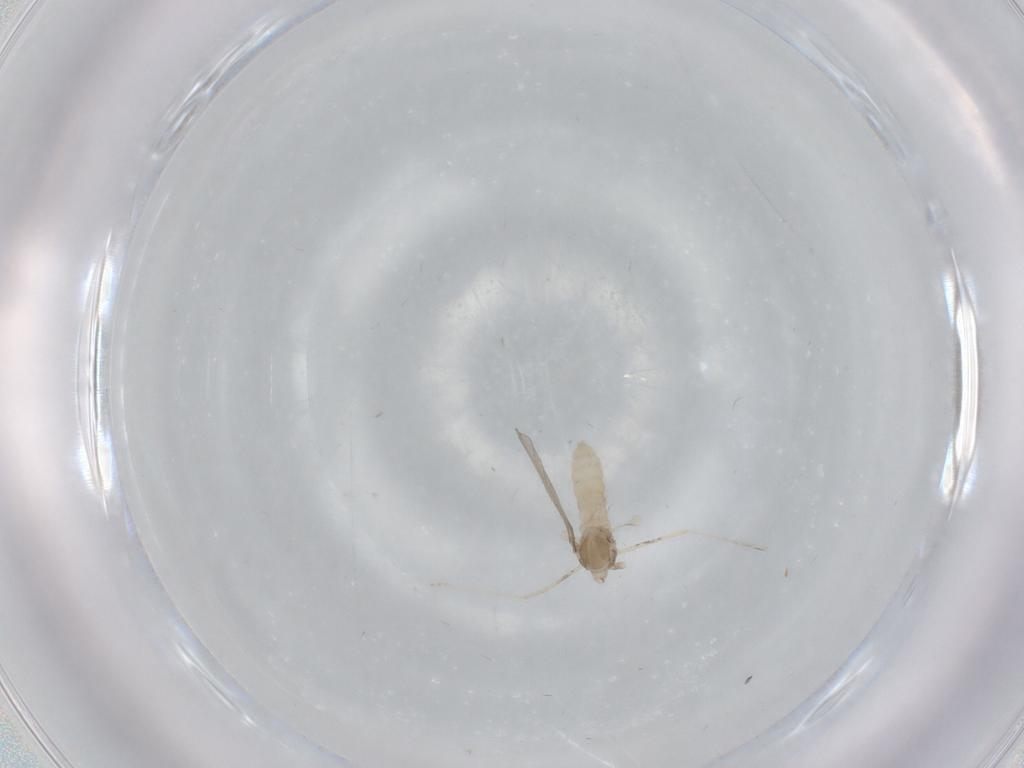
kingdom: Animalia
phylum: Arthropoda
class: Insecta
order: Diptera
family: Cecidomyiidae
